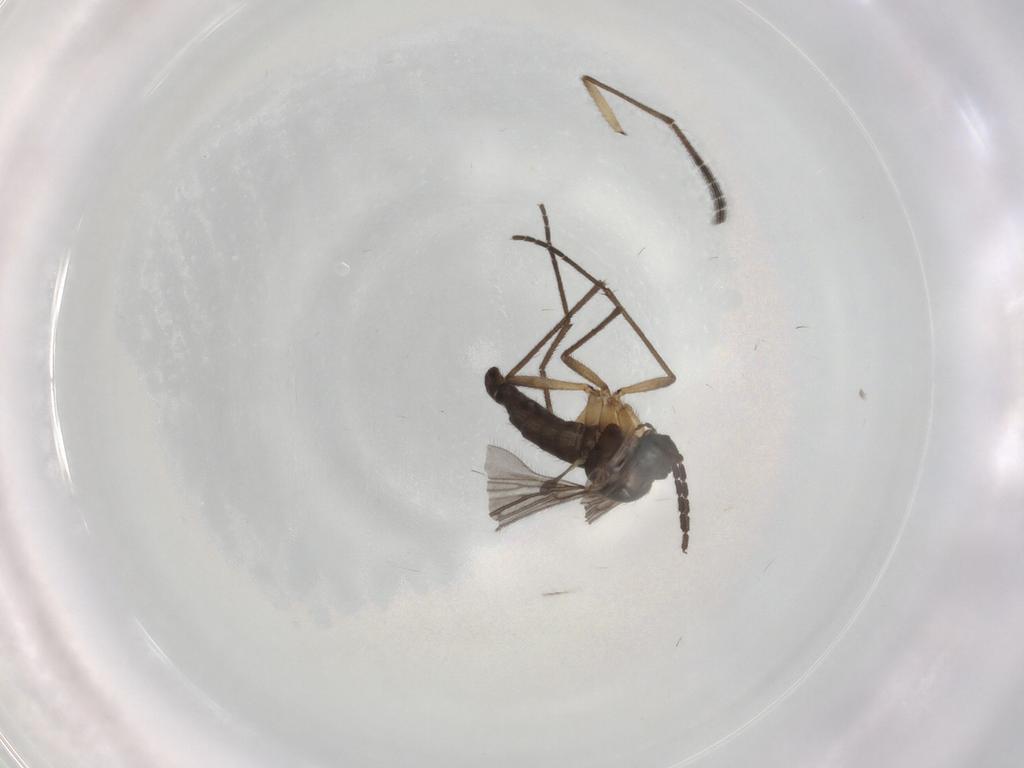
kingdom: Animalia
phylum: Arthropoda
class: Insecta
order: Diptera
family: Sciaridae
